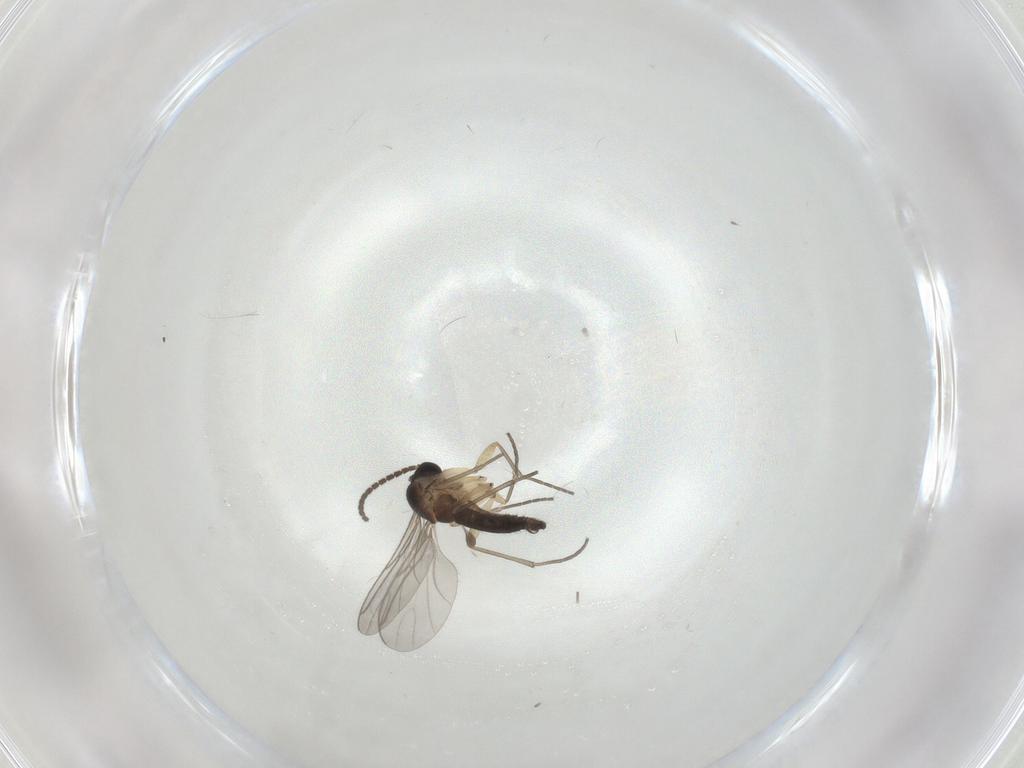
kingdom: Animalia
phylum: Arthropoda
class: Insecta
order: Diptera
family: Sciaridae
